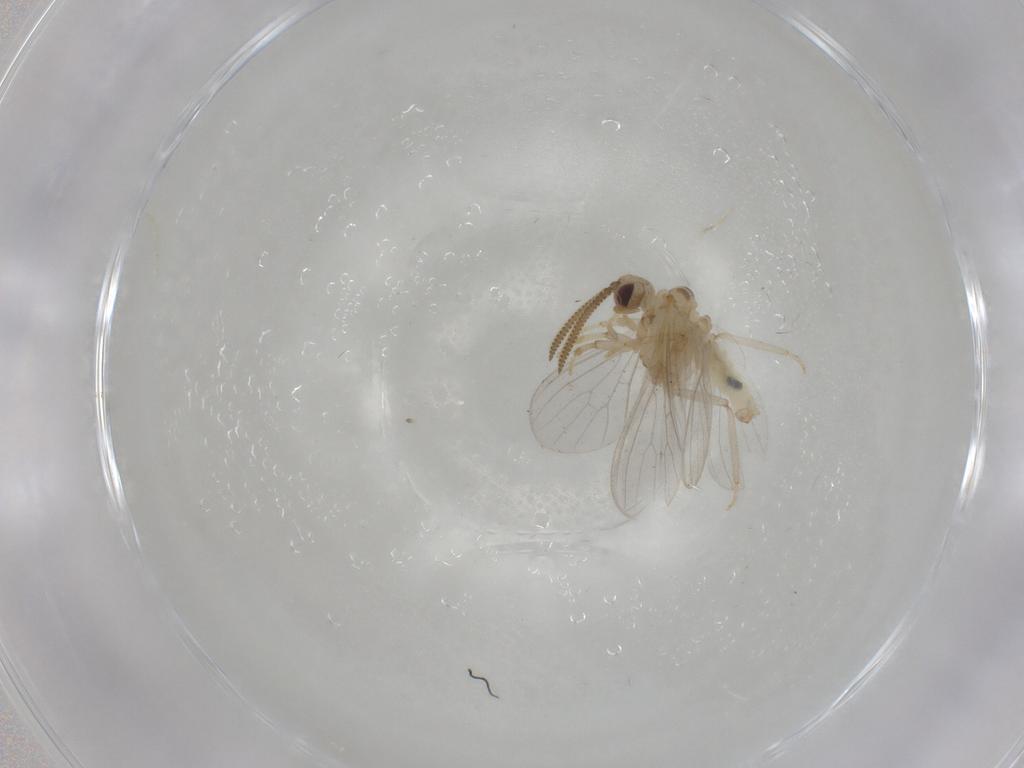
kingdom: Animalia
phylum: Arthropoda
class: Insecta
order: Neuroptera
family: Coniopterygidae
